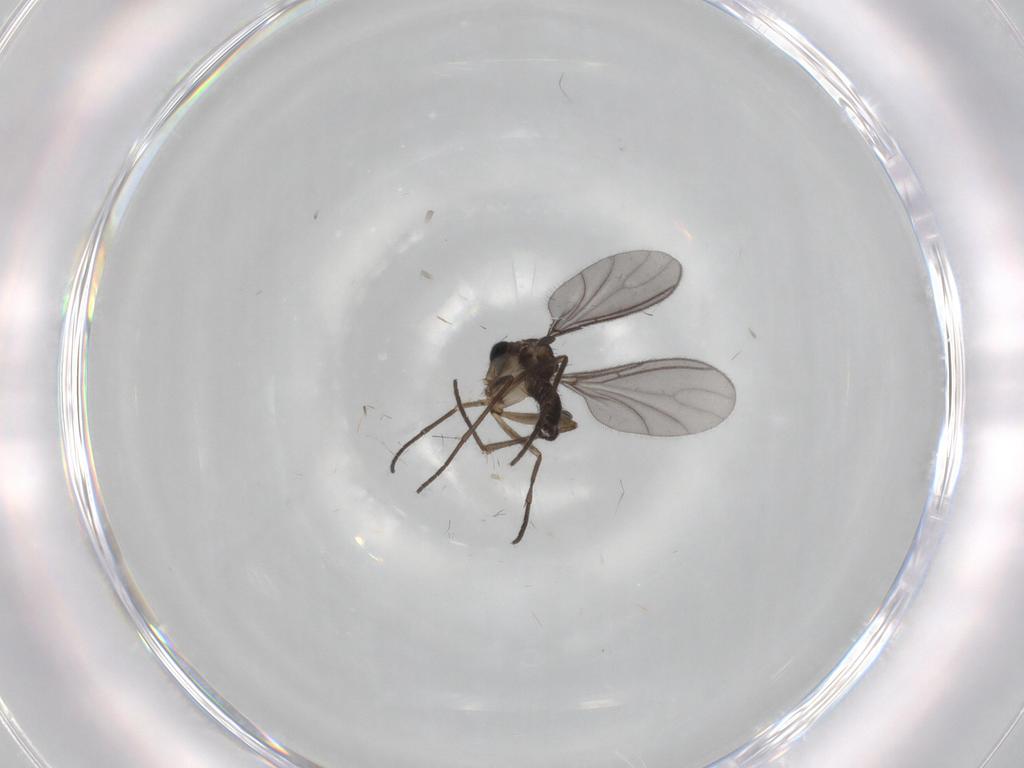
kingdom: Animalia
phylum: Arthropoda
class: Insecta
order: Diptera
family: Sciaridae
